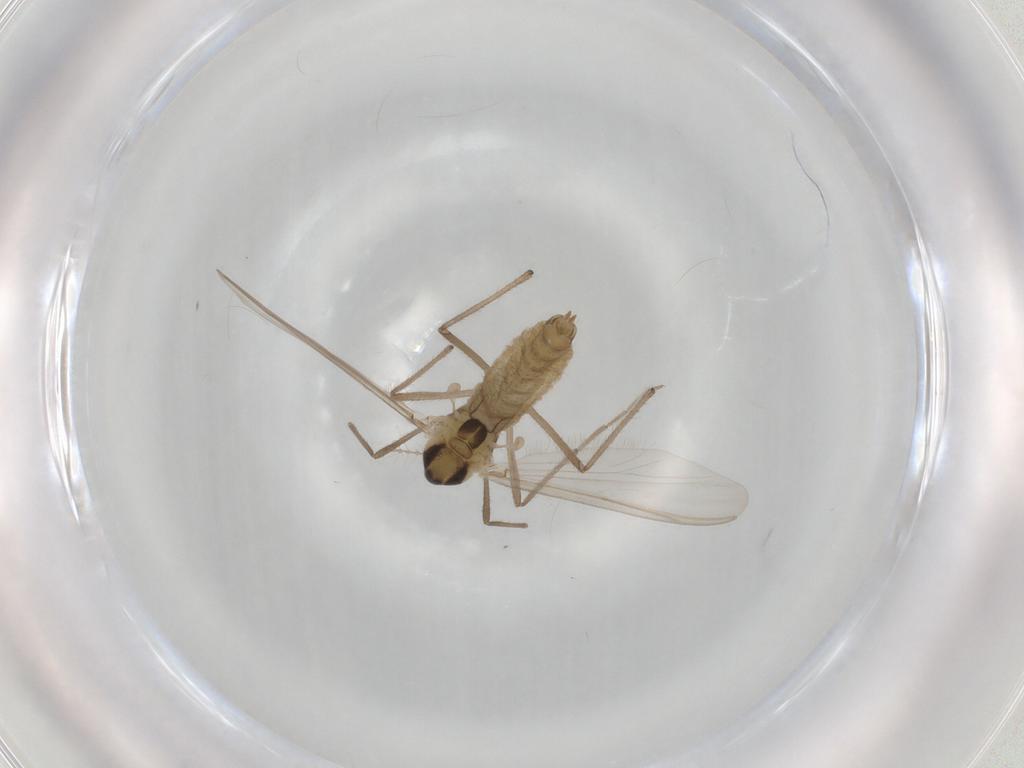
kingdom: Animalia
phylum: Arthropoda
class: Insecta
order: Diptera
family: Chironomidae
